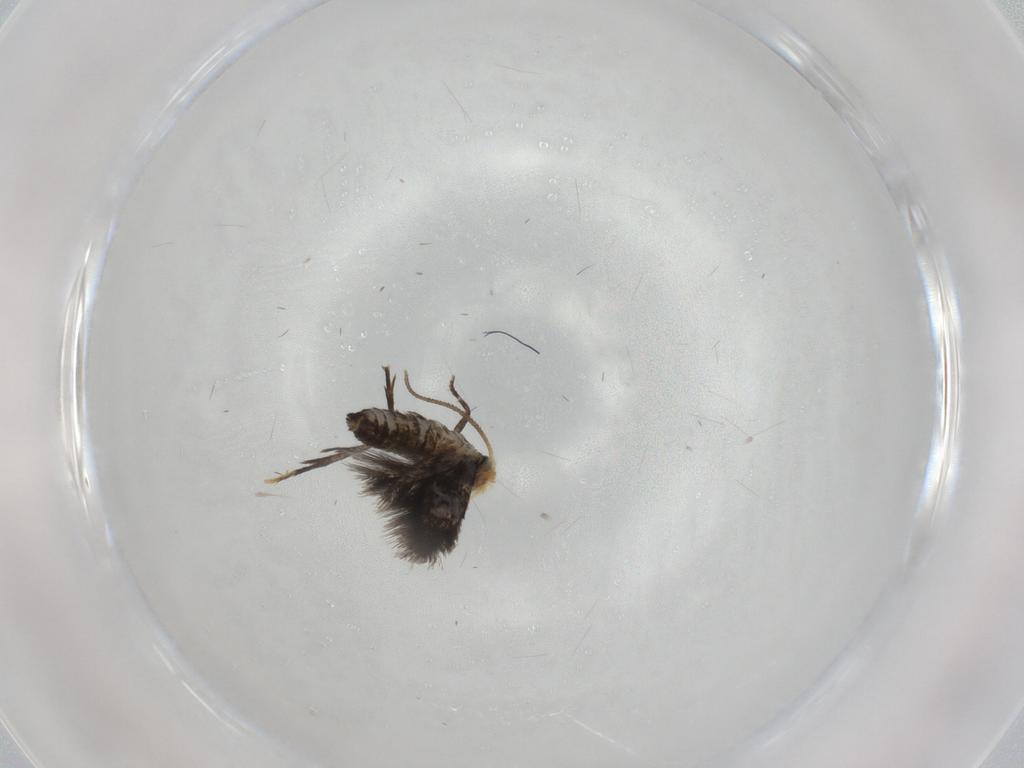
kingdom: Animalia
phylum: Arthropoda
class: Insecta
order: Lepidoptera
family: Nepticulidae
